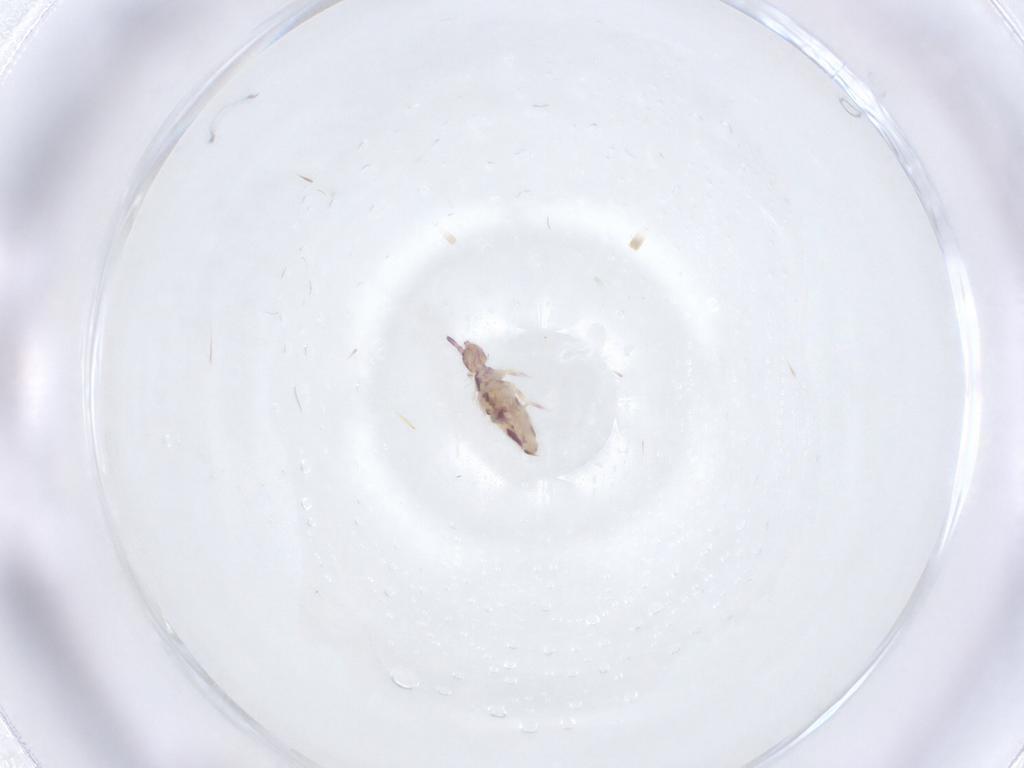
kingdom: Animalia
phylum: Arthropoda
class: Collembola
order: Entomobryomorpha
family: Entomobryidae
